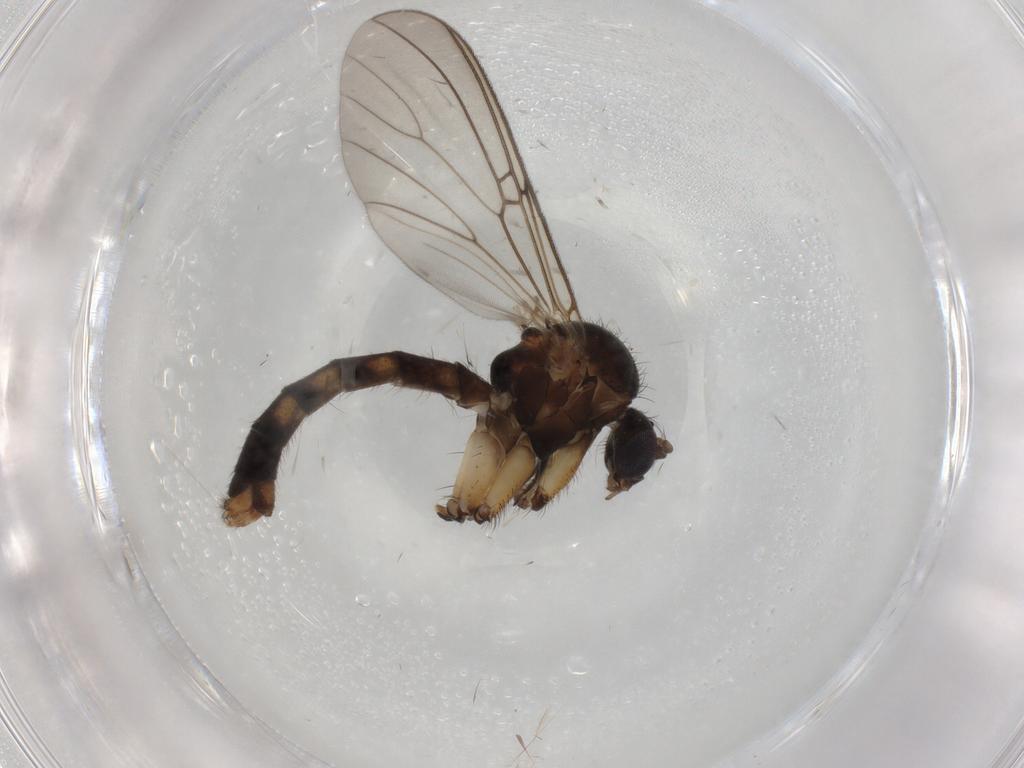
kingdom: Animalia
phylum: Arthropoda
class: Insecta
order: Diptera
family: Mycetophilidae
